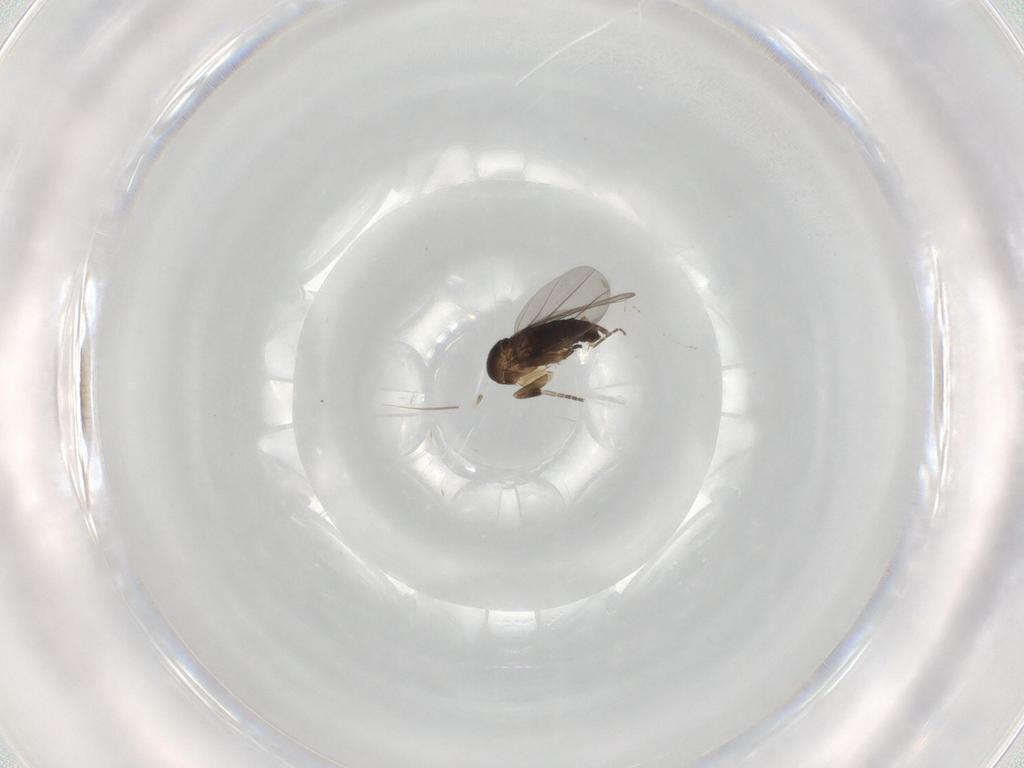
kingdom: Animalia
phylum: Arthropoda
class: Insecta
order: Diptera
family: Phoridae
